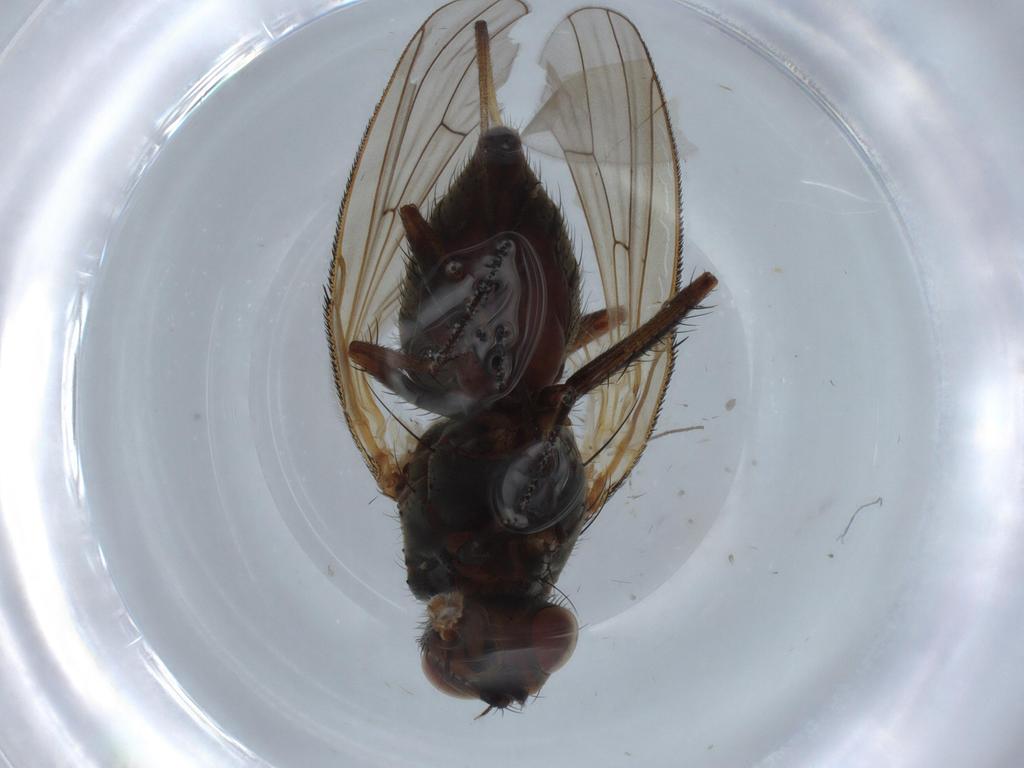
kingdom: Animalia
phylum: Arthropoda
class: Insecta
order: Diptera
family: Anthomyiidae
